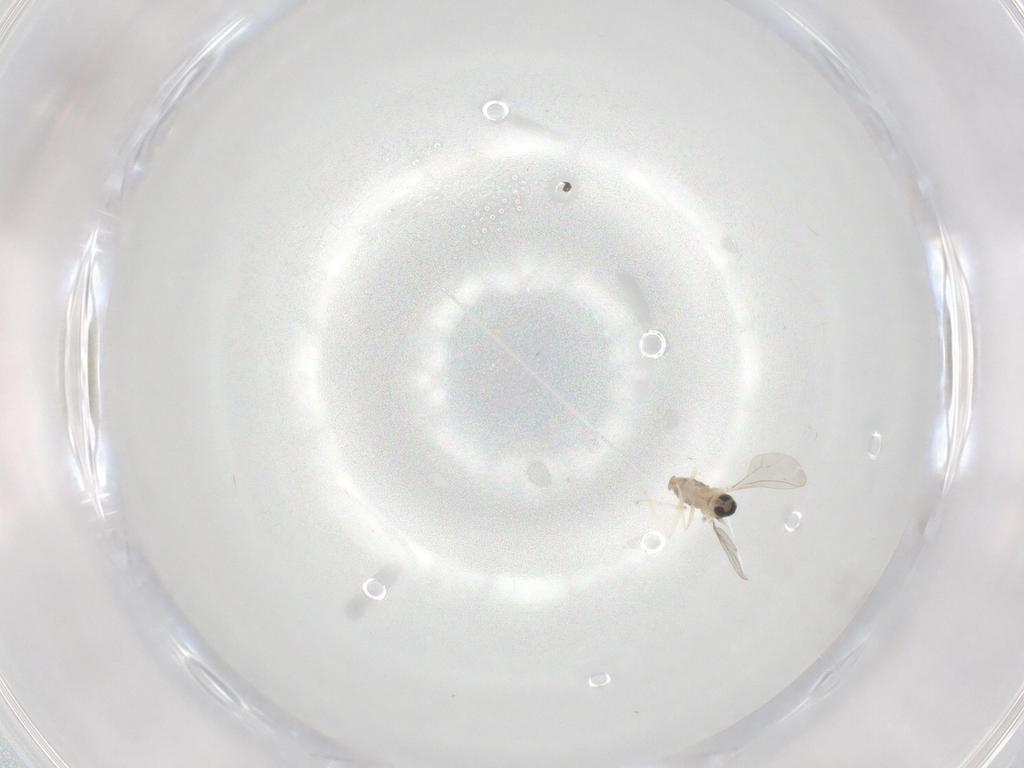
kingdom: Animalia
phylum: Arthropoda
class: Insecta
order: Diptera
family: Cecidomyiidae
